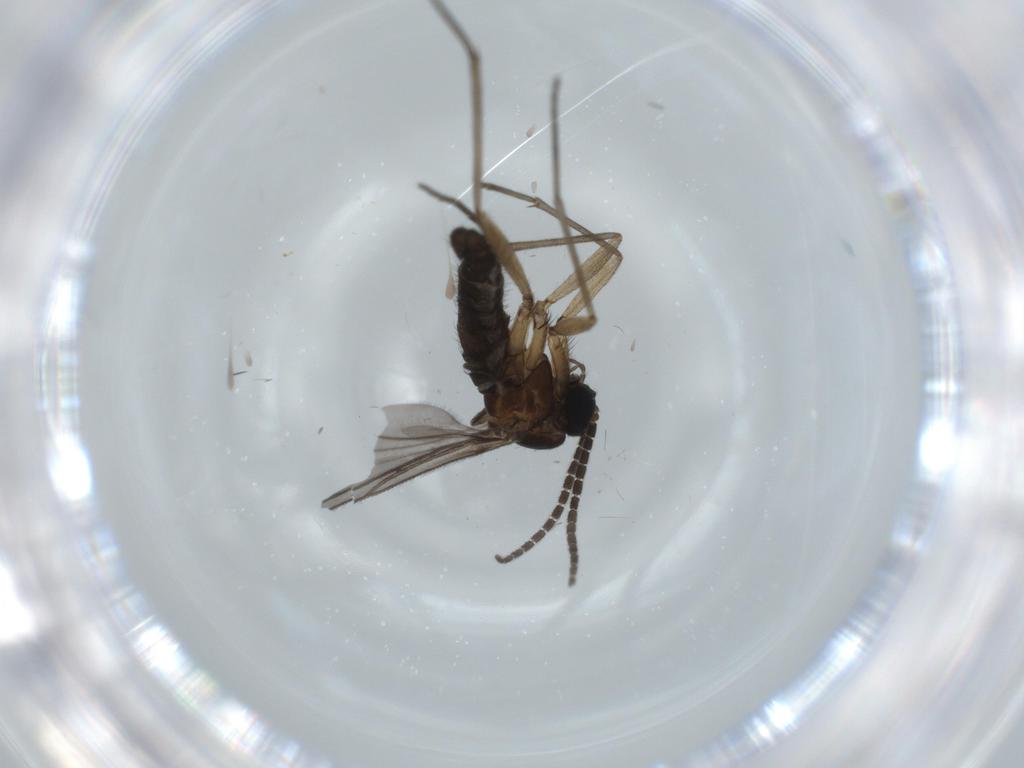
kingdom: Animalia
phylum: Arthropoda
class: Insecta
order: Diptera
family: Sciaridae
